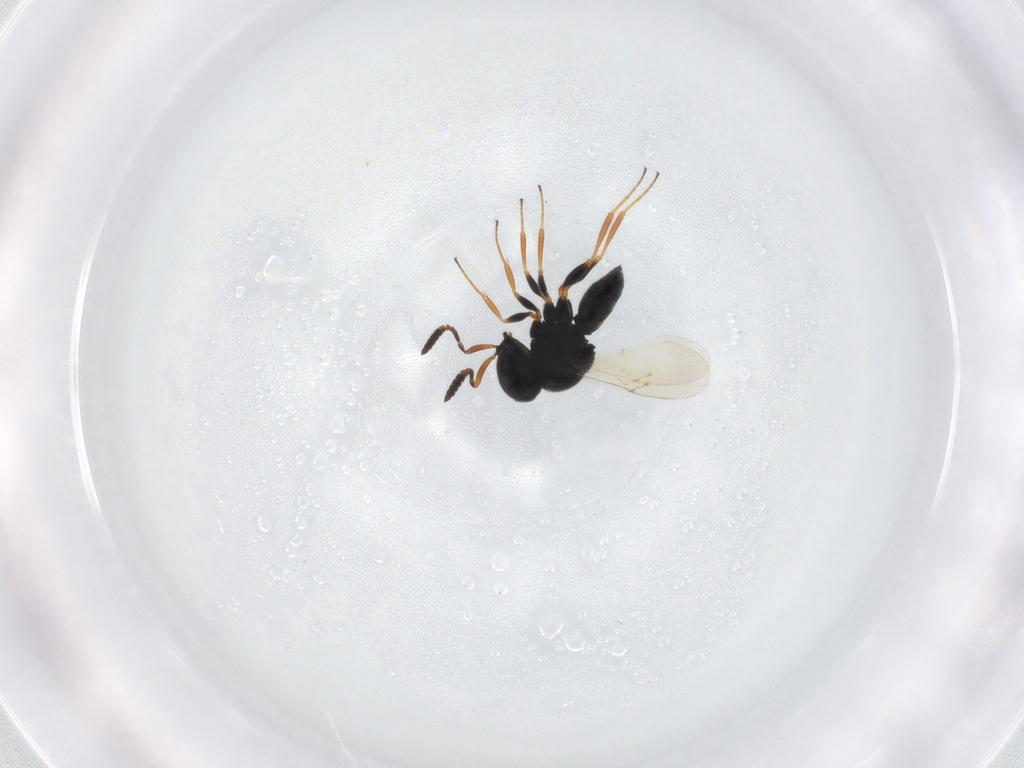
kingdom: Animalia
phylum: Arthropoda
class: Insecta
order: Hymenoptera
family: Scelionidae
